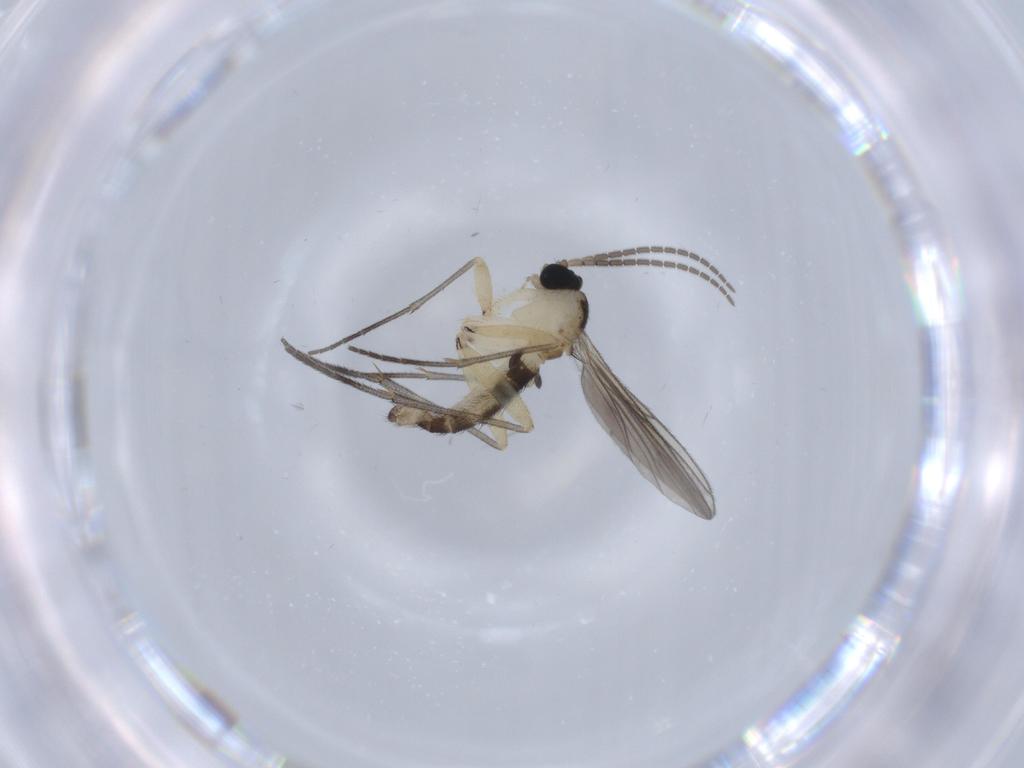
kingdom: Animalia
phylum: Arthropoda
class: Insecta
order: Diptera
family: Sciaridae
